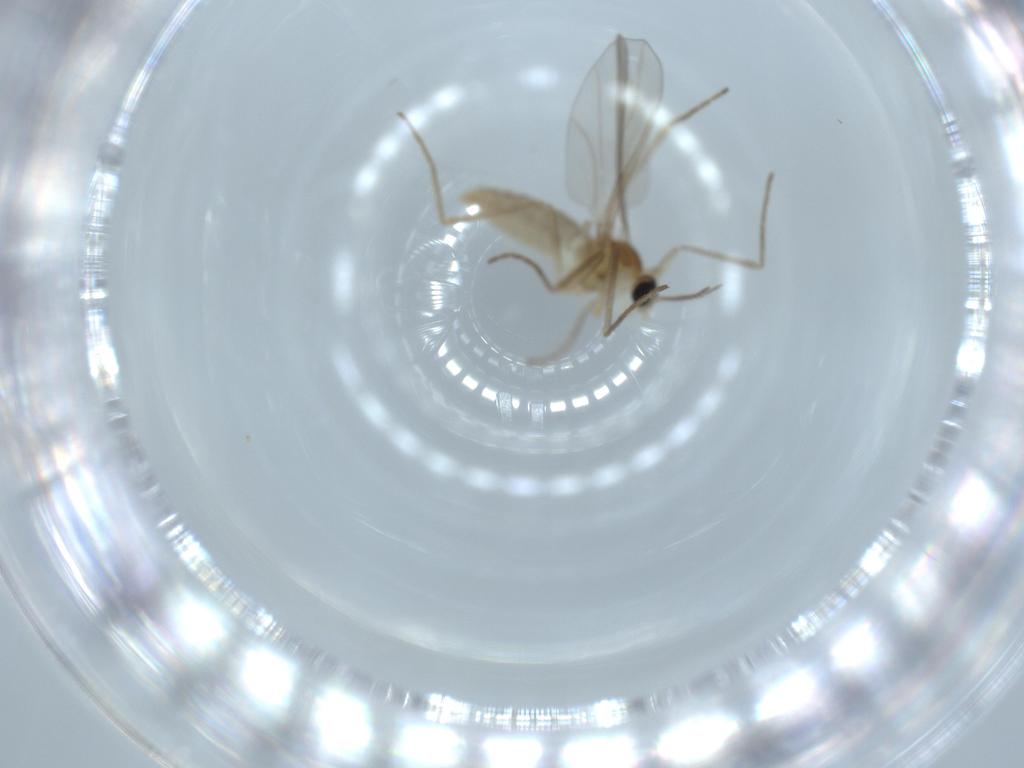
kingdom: Animalia
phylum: Arthropoda
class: Insecta
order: Diptera
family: Cecidomyiidae
